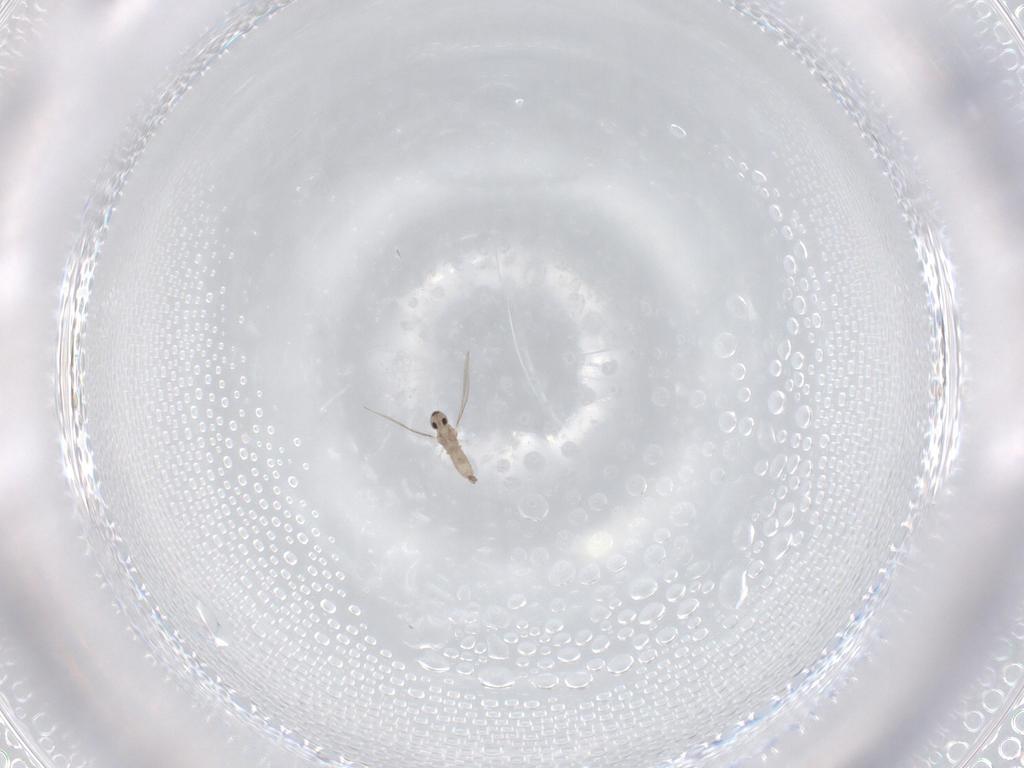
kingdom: Animalia
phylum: Arthropoda
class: Insecta
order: Diptera
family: Cecidomyiidae
